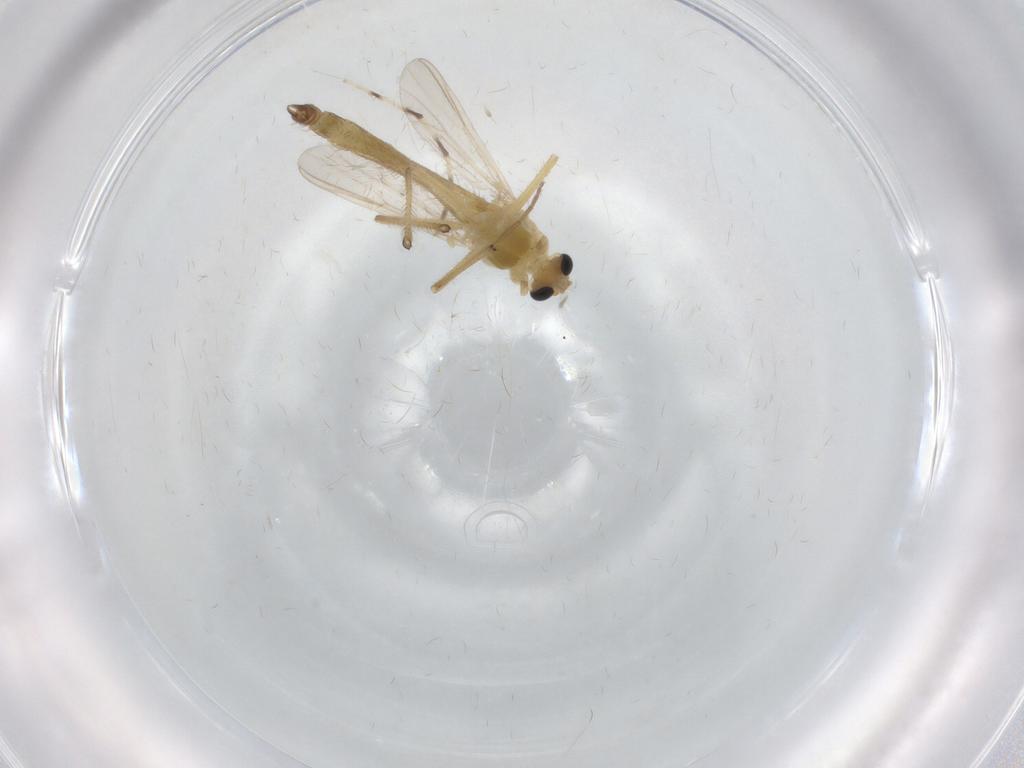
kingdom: Animalia
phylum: Arthropoda
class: Insecta
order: Diptera
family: Chironomidae
